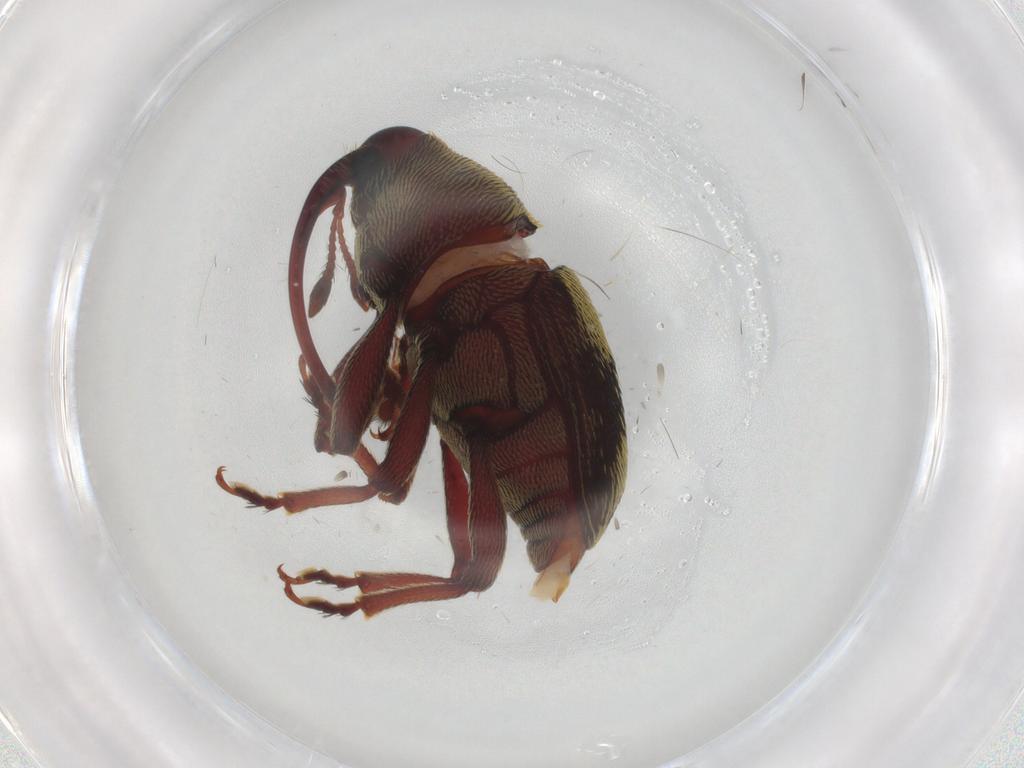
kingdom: Animalia
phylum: Arthropoda
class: Insecta
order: Coleoptera
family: Curculionidae
